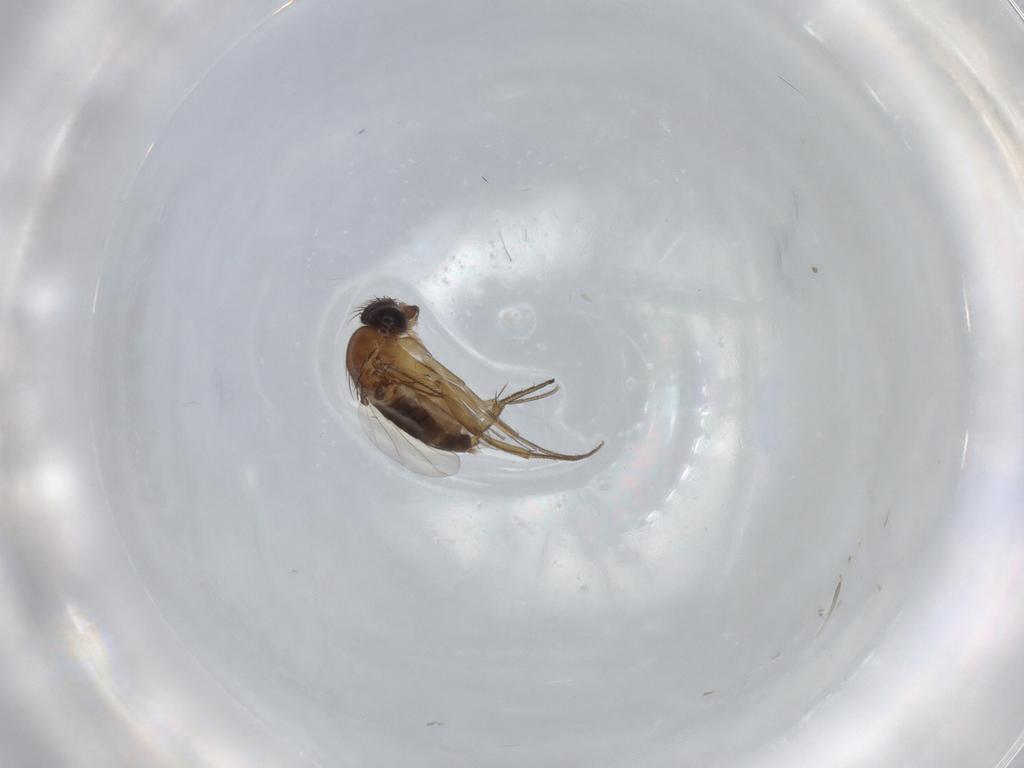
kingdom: Animalia
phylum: Arthropoda
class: Insecta
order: Diptera
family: Phoridae
